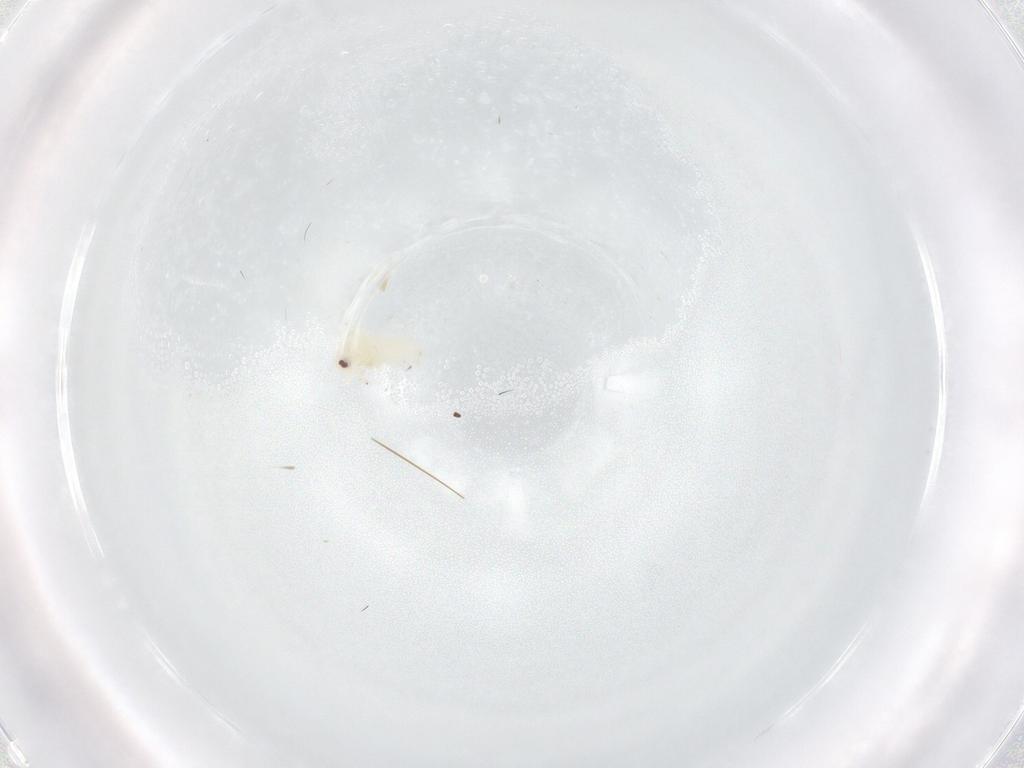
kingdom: Animalia
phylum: Arthropoda
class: Insecta
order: Hemiptera
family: Aleyrodidae
